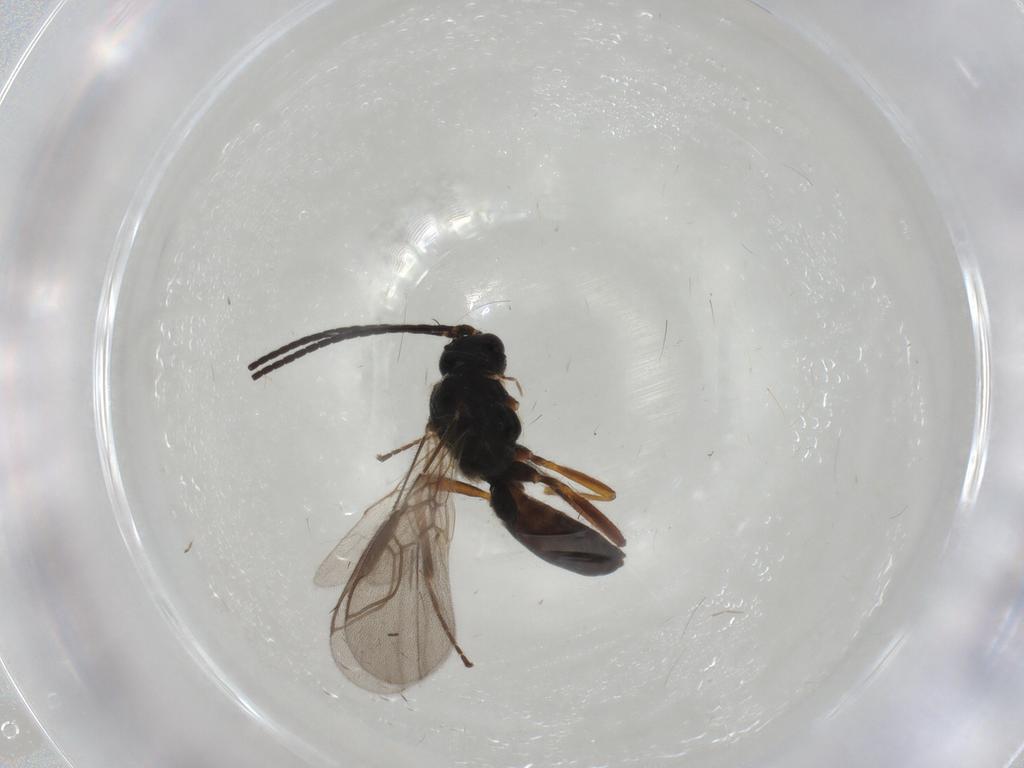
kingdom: Animalia
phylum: Arthropoda
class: Insecta
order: Hymenoptera
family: Braconidae
